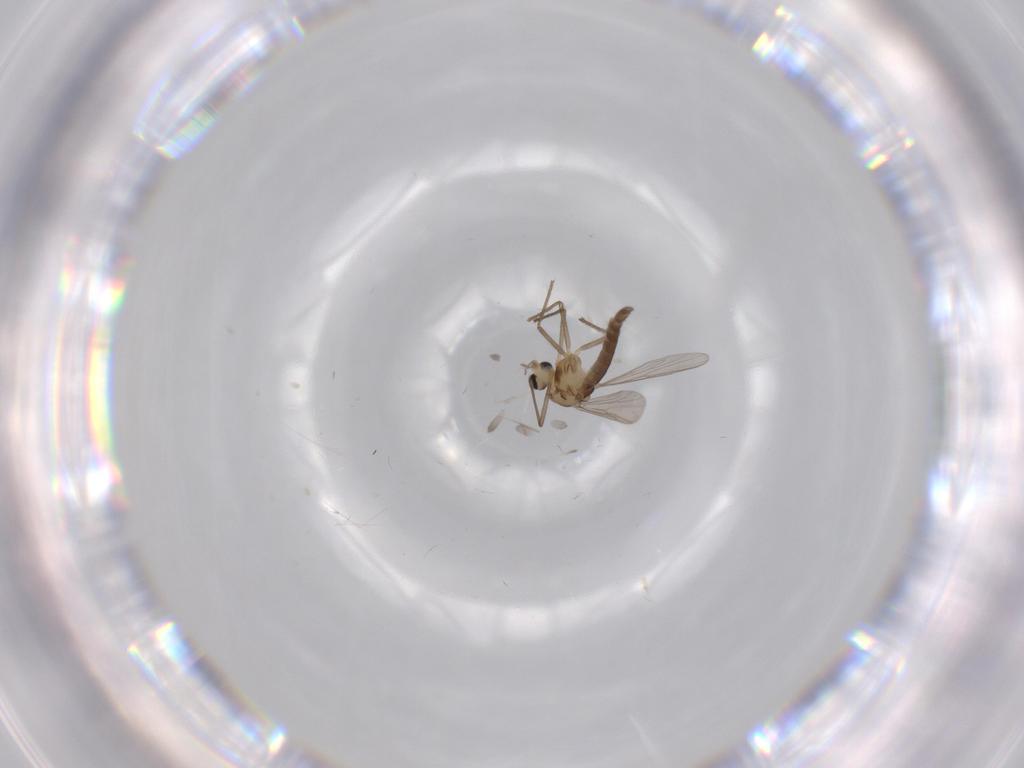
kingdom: Animalia
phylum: Arthropoda
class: Insecta
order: Diptera
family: Chironomidae
